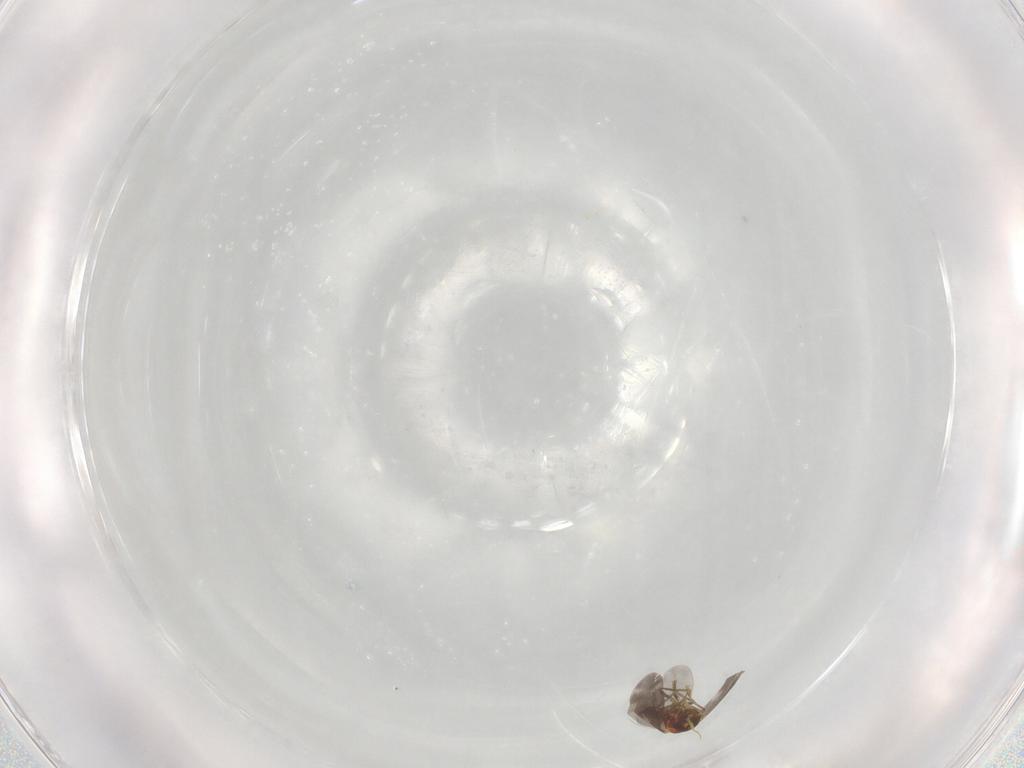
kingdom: Animalia
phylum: Arthropoda
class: Insecta
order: Hemiptera
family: Aleyrodidae
